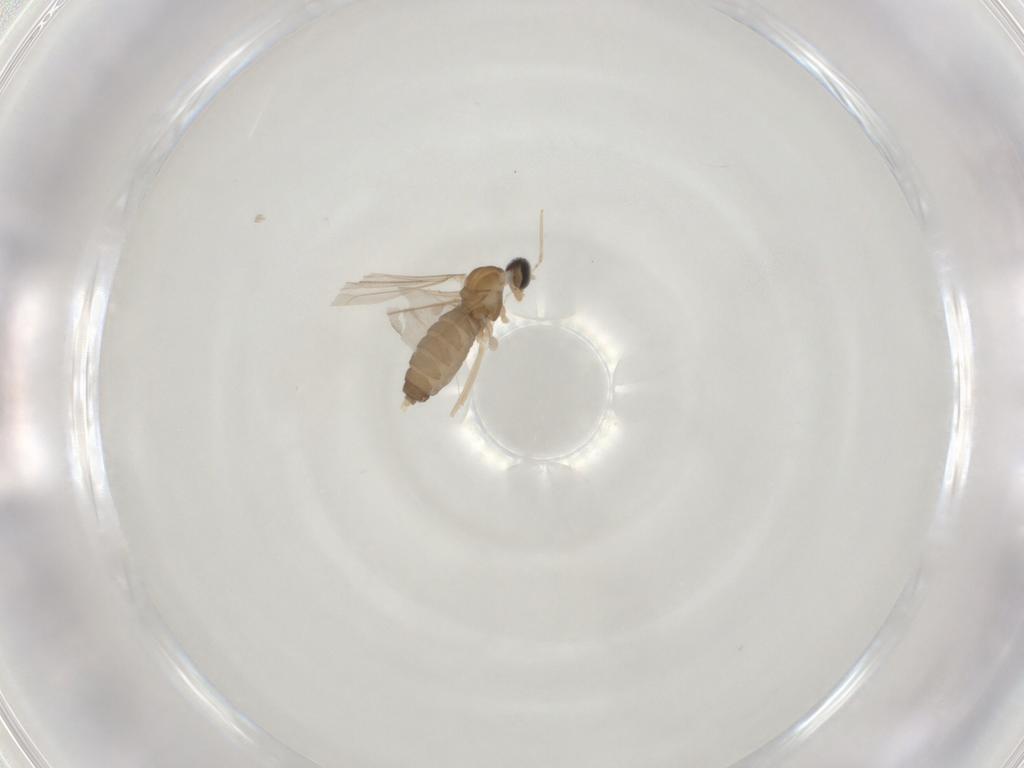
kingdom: Animalia
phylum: Arthropoda
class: Insecta
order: Diptera
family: Cecidomyiidae
